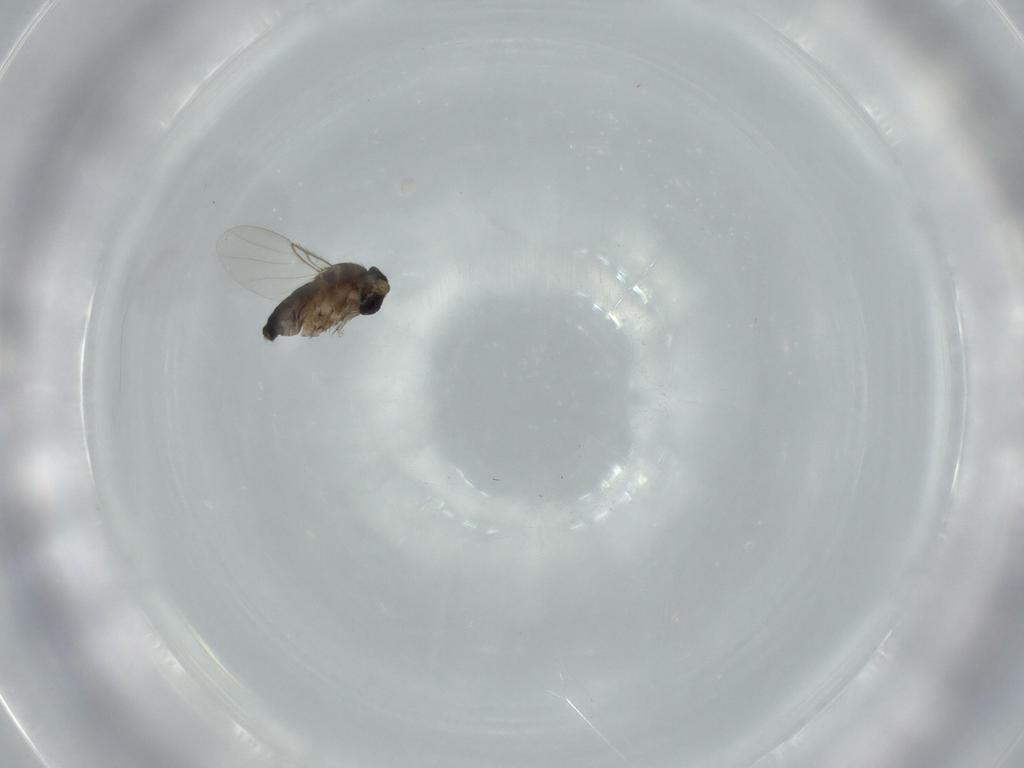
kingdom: Animalia
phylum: Arthropoda
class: Insecta
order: Diptera
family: Phoridae
